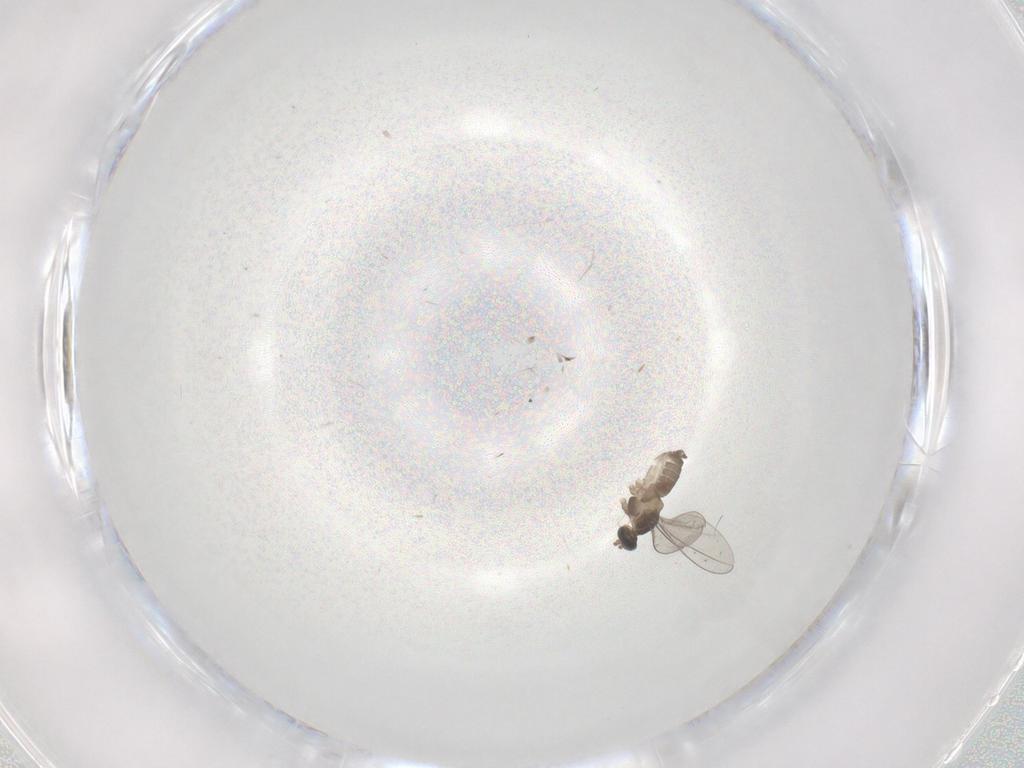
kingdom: Animalia
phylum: Arthropoda
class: Insecta
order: Diptera
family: Cecidomyiidae
